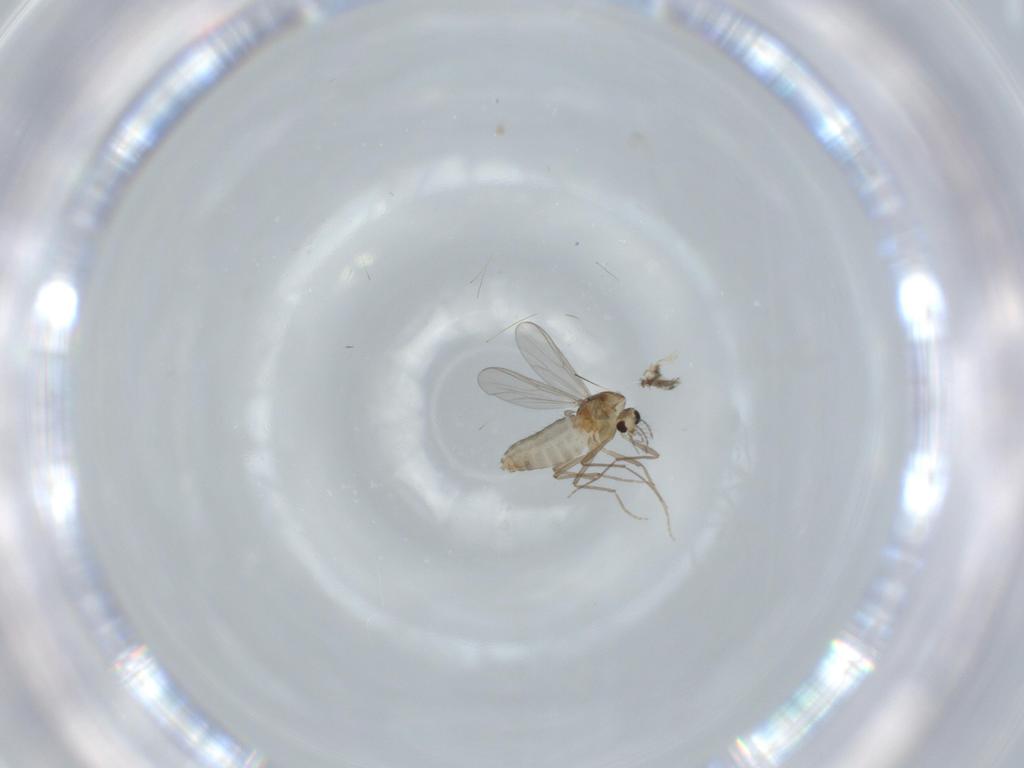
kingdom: Animalia
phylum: Arthropoda
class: Insecta
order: Diptera
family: Chironomidae
